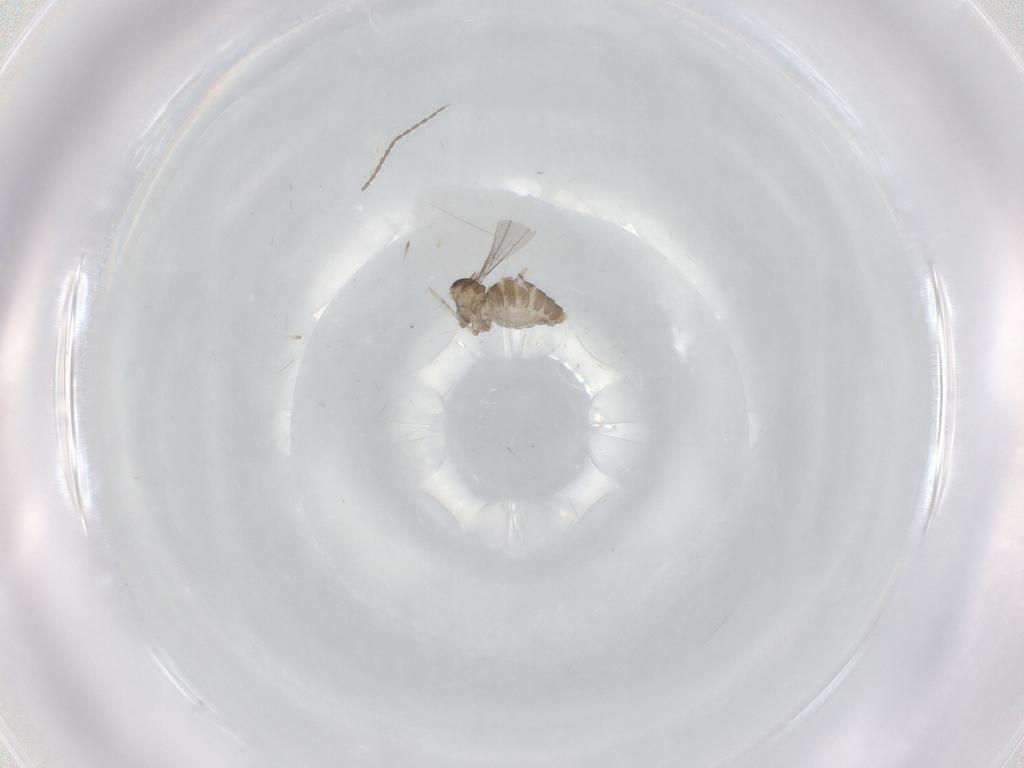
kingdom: Animalia
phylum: Arthropoda
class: Insecta
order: Diptera
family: Cecidomyiidae
